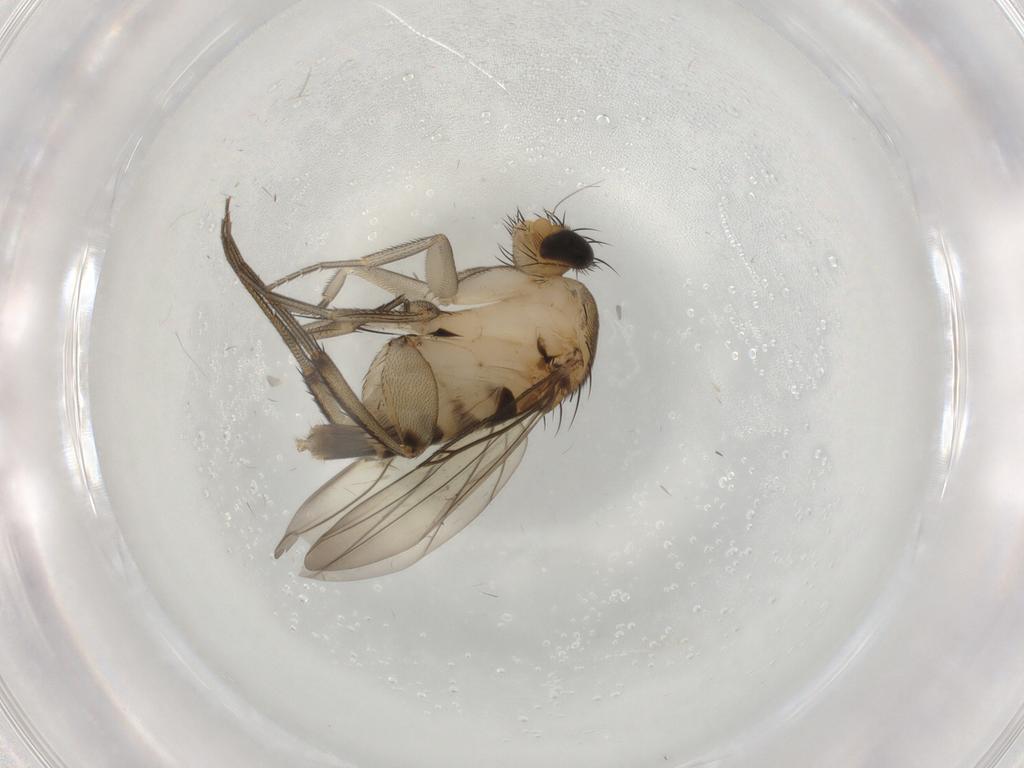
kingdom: Animalia
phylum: Arthropoda
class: Insecta
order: Diptera
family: Phoridae
